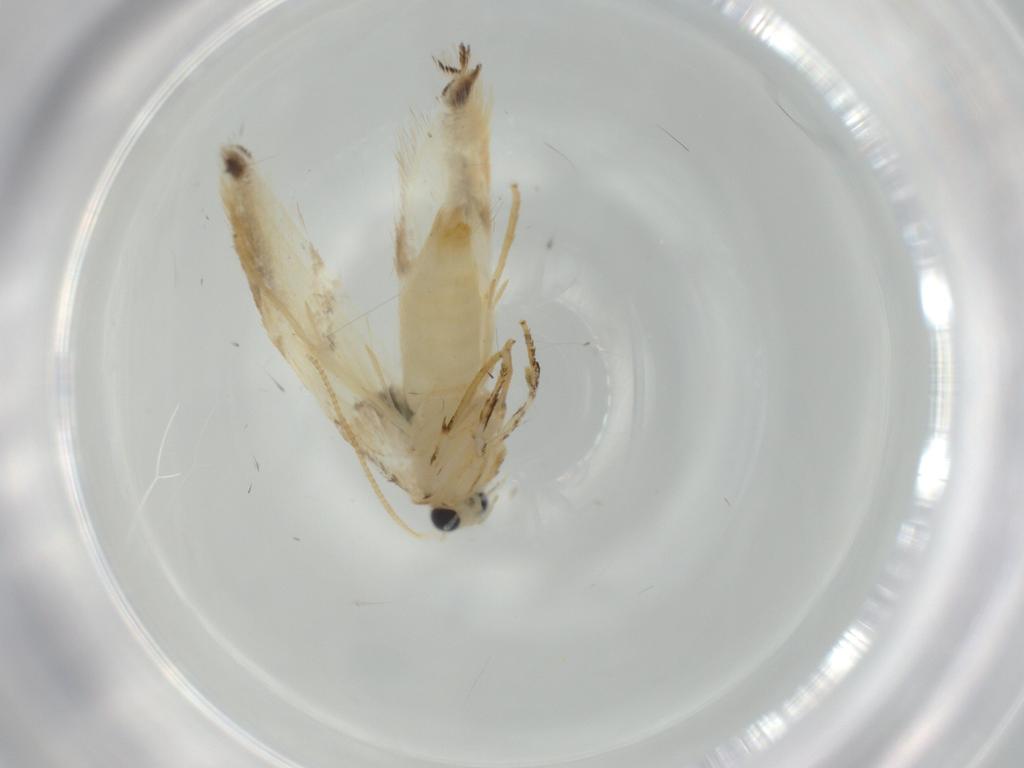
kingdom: Animalia
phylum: Arthropoda
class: Insecta
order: Lepidoptera
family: Tineidae
